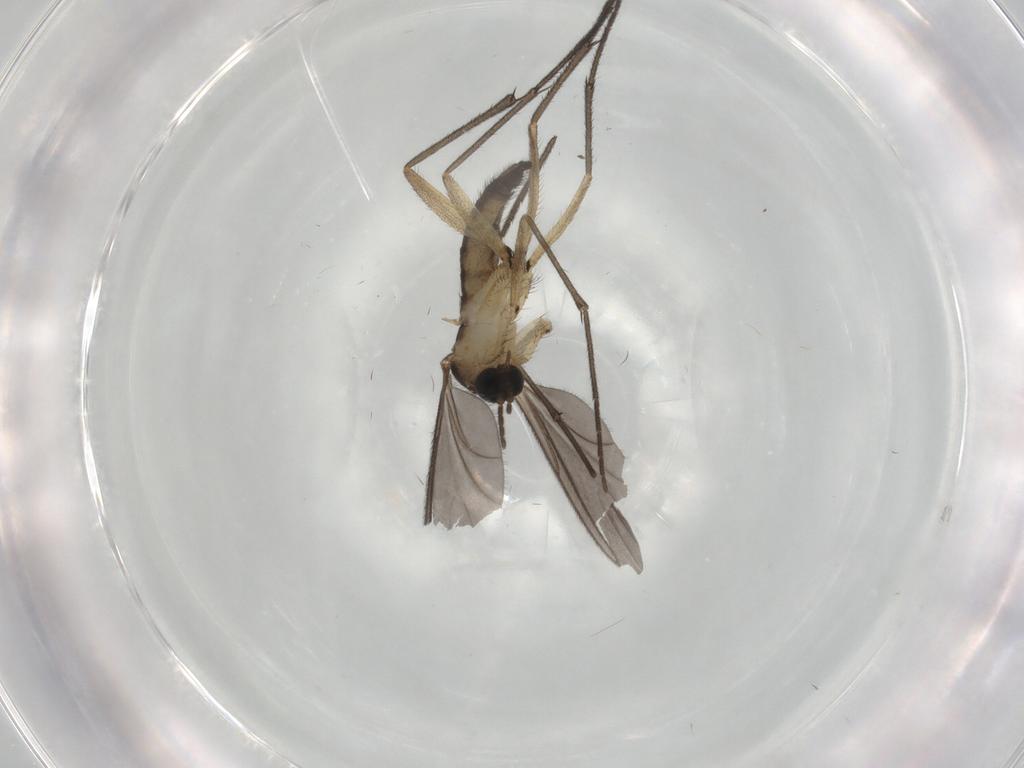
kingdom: Animalia
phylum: Arthropoda
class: Insecta
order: Diptera
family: Sciaridae
